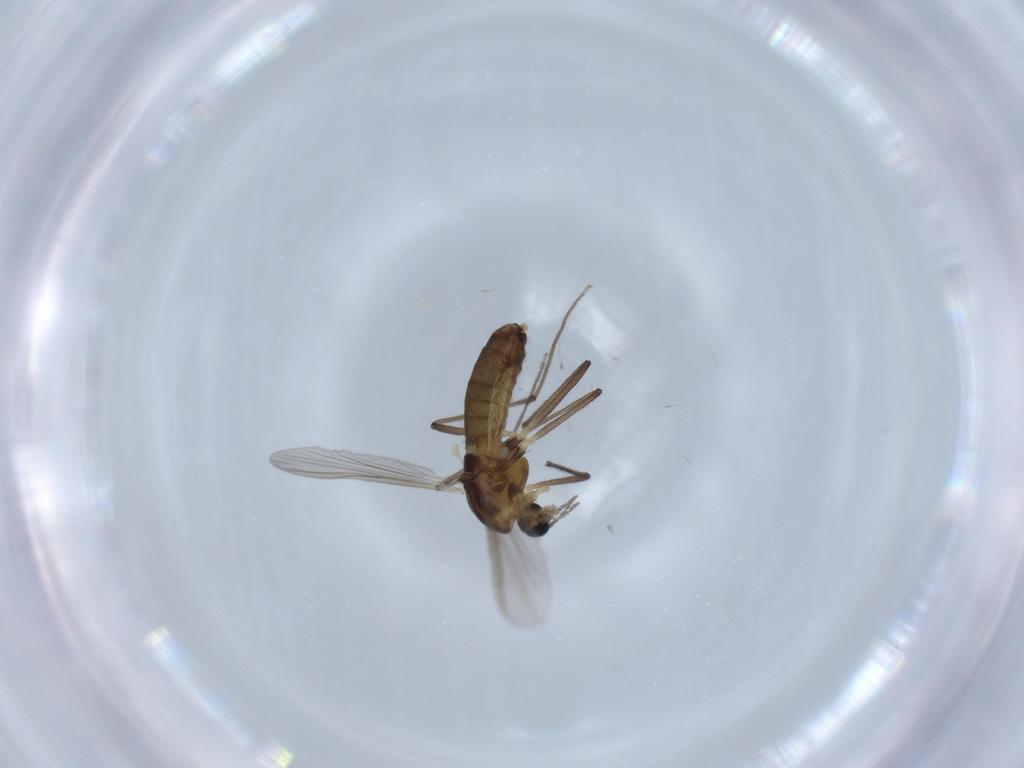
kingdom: Animalia
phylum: Arthropoda
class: Insecta
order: Diptera
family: Chironomidae
